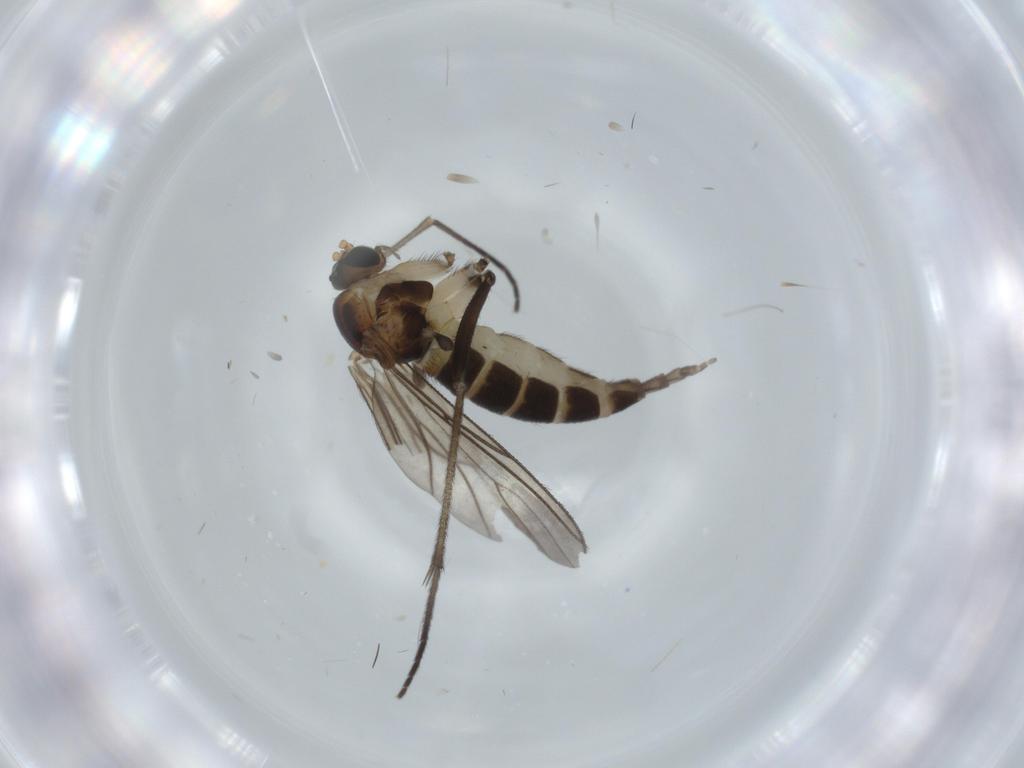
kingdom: Animalia
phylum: Arthropoda
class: Insecta
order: Diptera
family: Sciaridae
